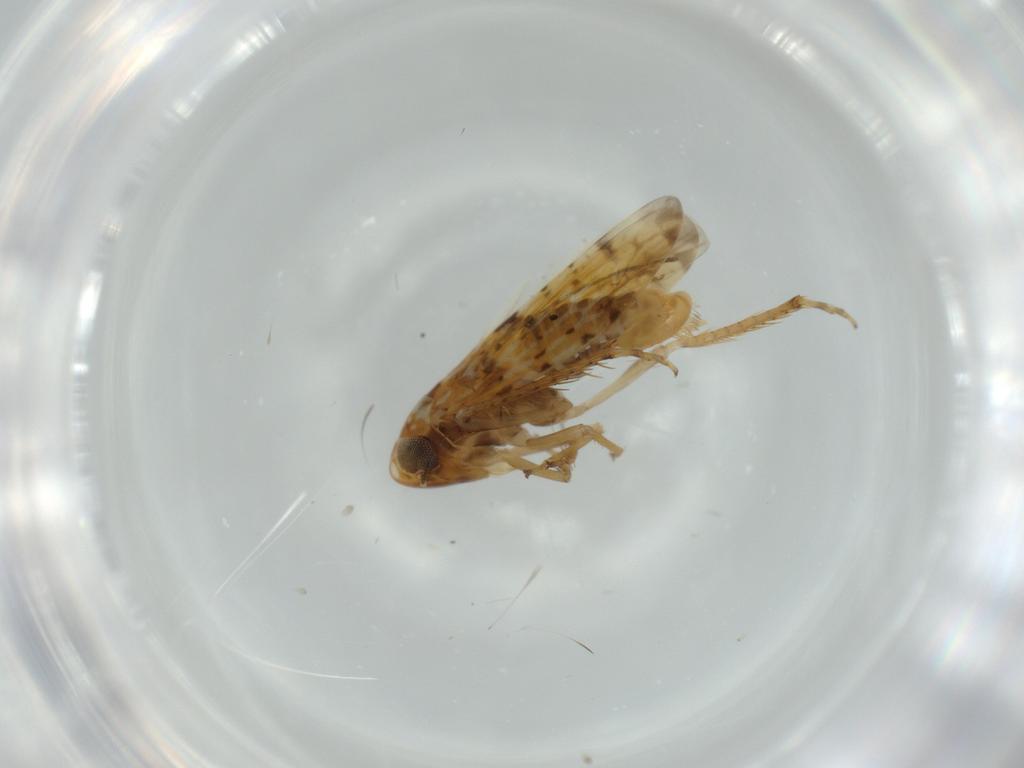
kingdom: Animalia
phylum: Arthropoda
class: Insecta
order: Hemiptera
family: Cicadellidae
